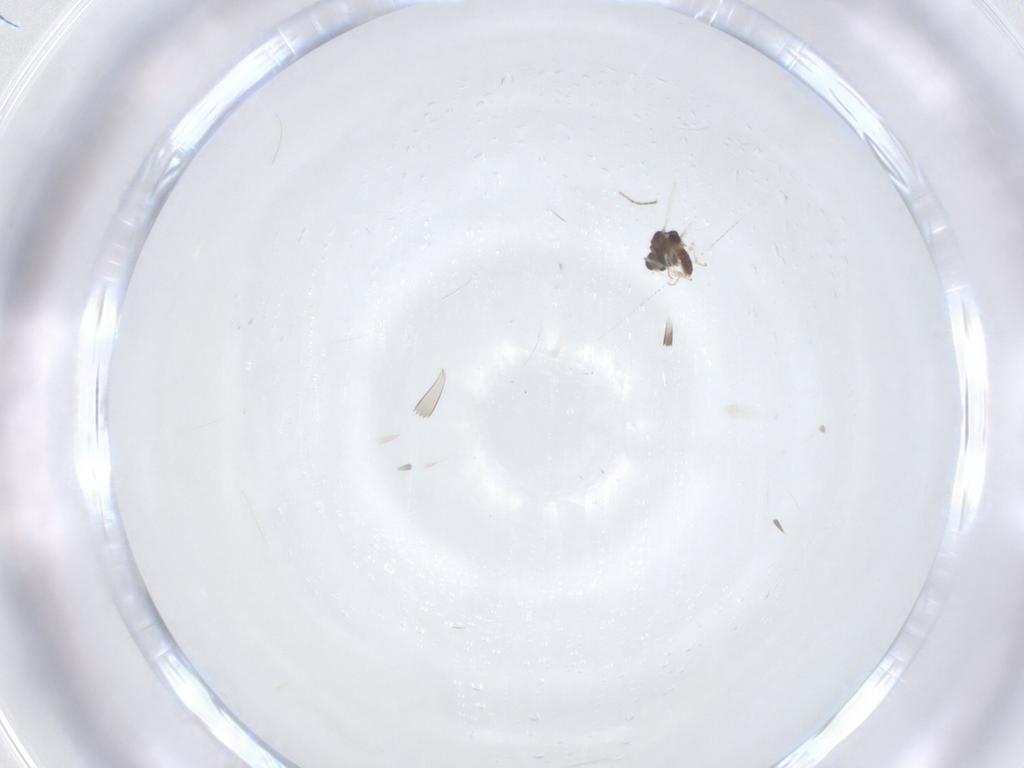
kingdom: Animalia
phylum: Arthropoda
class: Insecta
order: Diptera
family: Chironomidae
